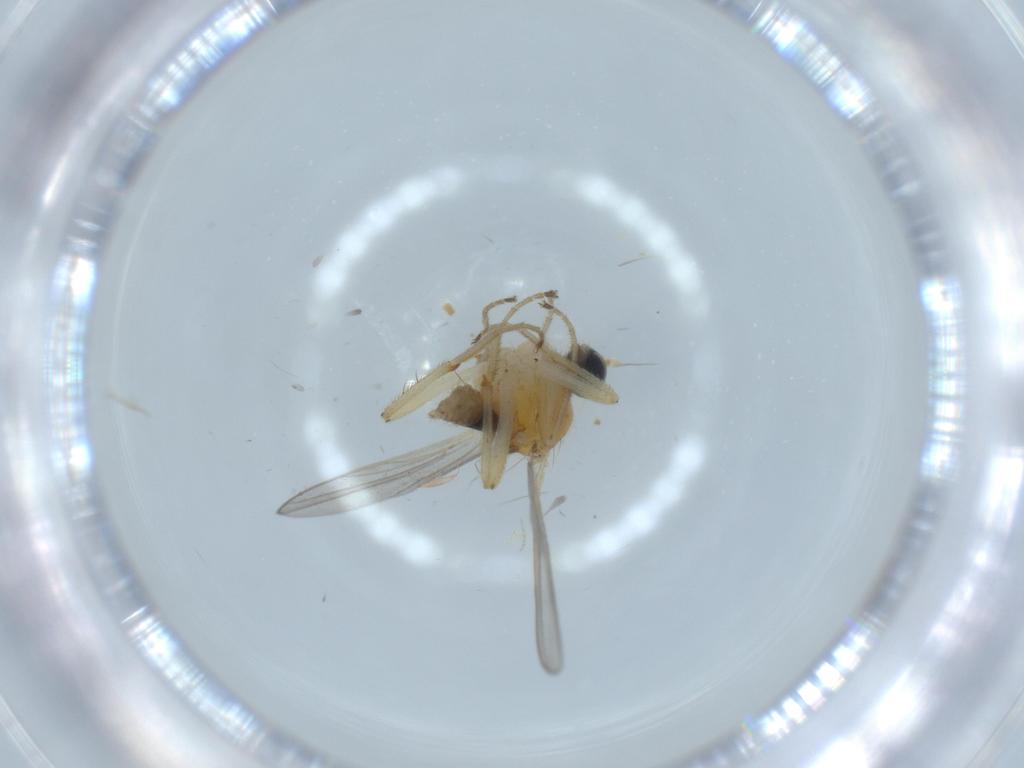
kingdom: Animalia
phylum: Arthropoda
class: Insecta
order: Diptera
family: Hybotidae
